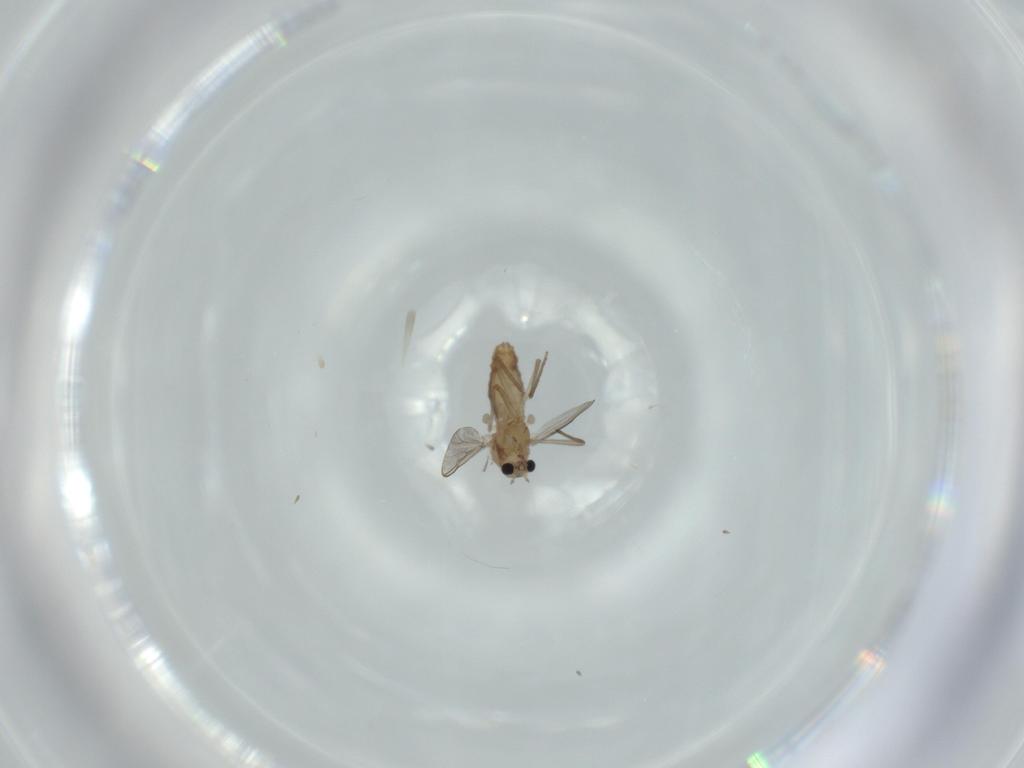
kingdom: Animalia
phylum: Arthropoda
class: Insecta
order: Diptera
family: Chironomidae
